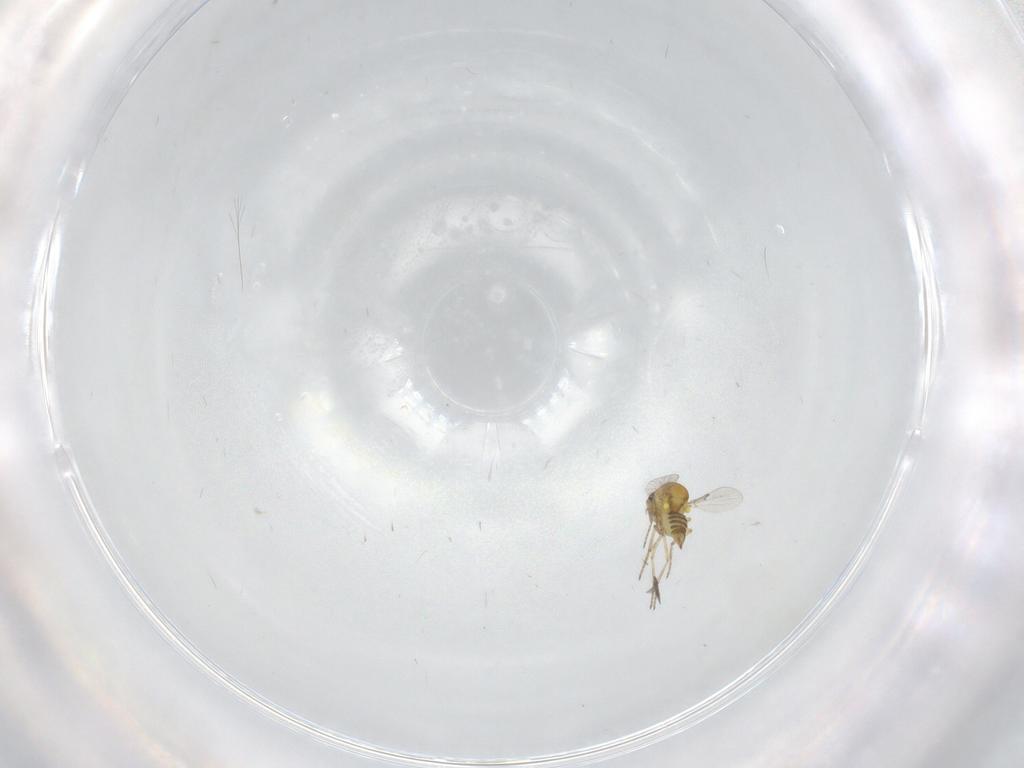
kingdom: Animalia
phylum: Arthropoda
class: Insecta
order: Diptera
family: Ceratopogonidae
